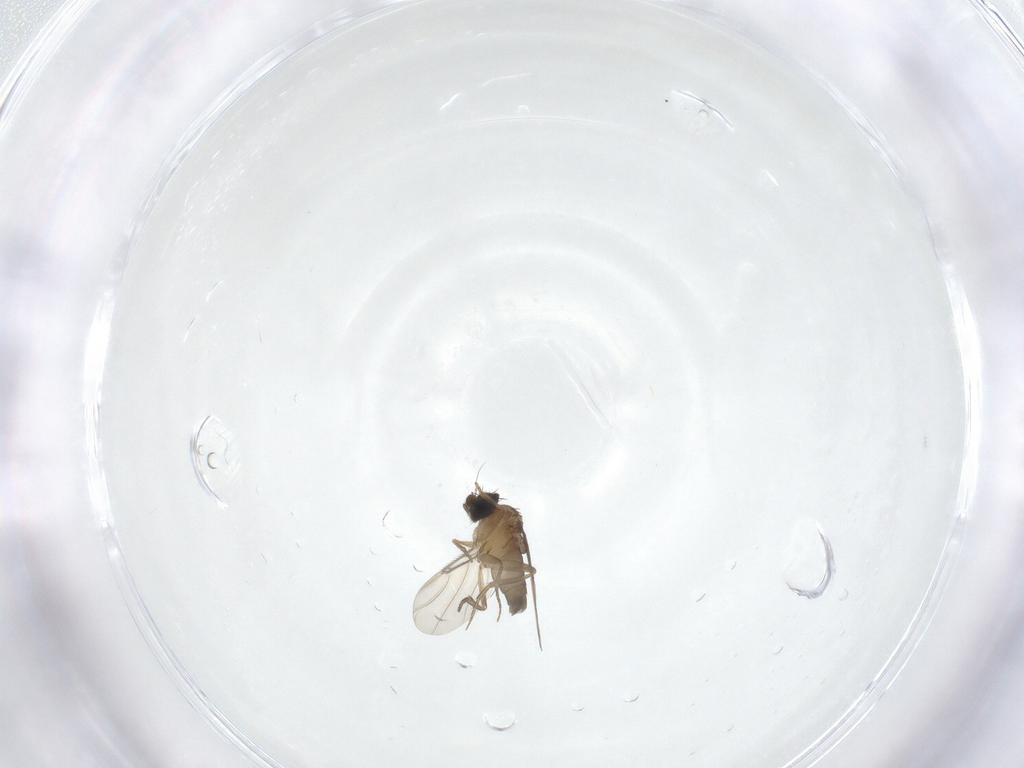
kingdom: Animalia
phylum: Arthropoda
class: Insecta
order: Diptera
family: Phoridae
